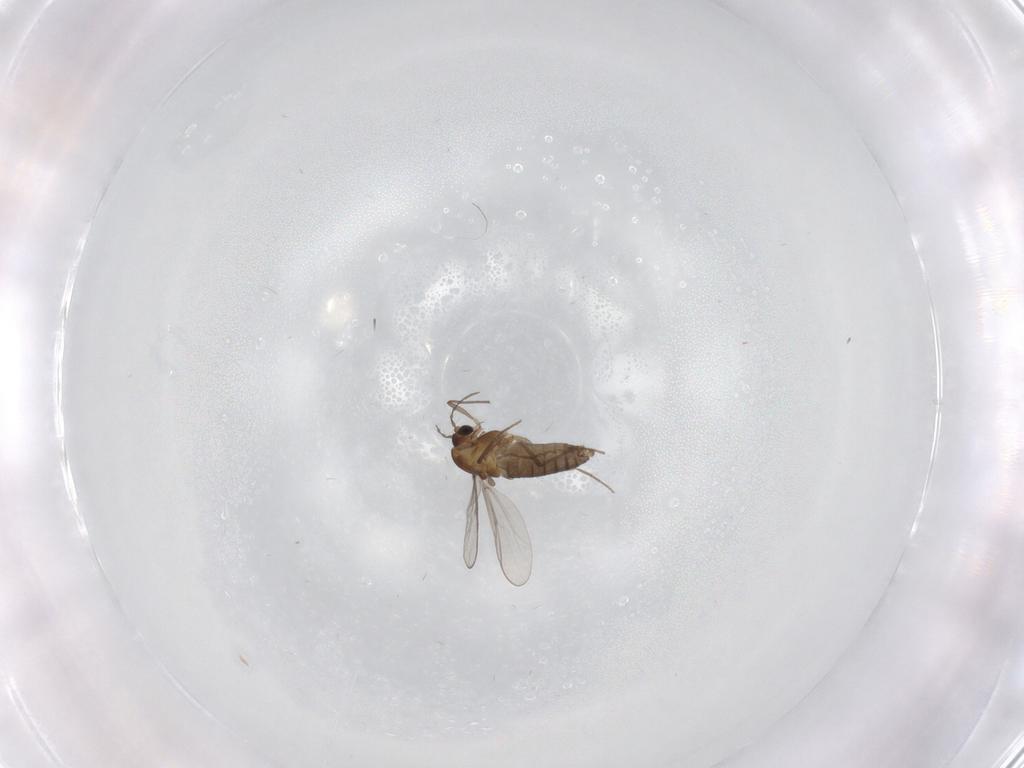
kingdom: Animalia
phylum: Arthropoda
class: Insecta
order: Diptera
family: Chironomidae
